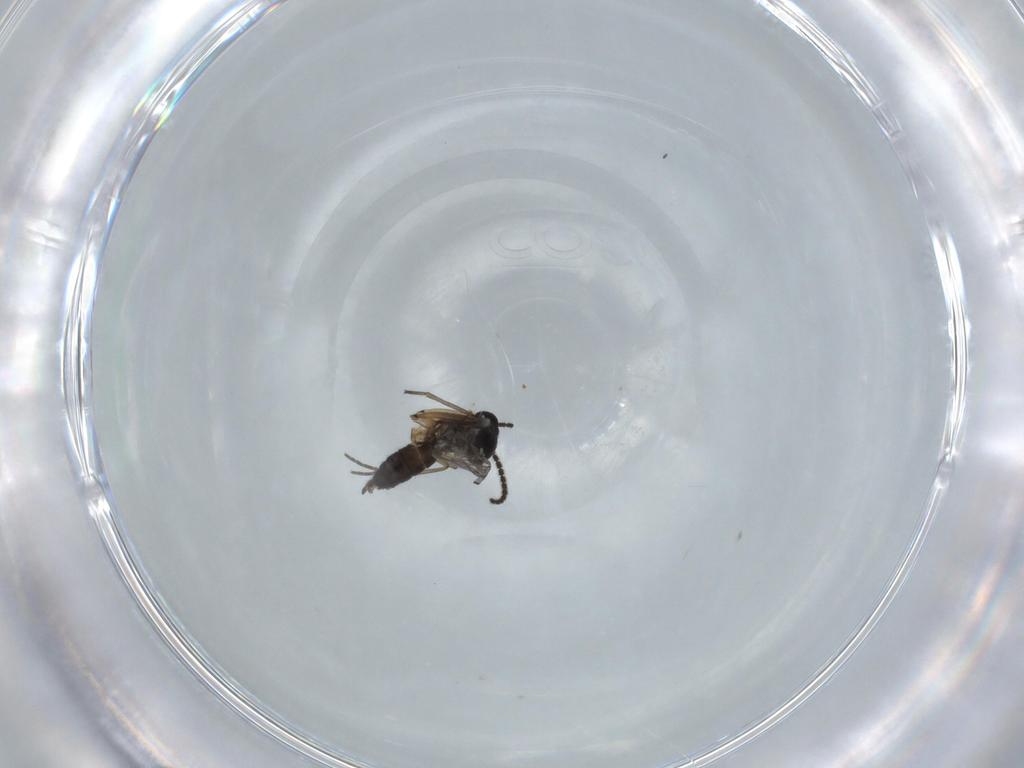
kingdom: Animalia
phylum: Arthropoda
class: Insecta
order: Diptera
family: Sciaridae
